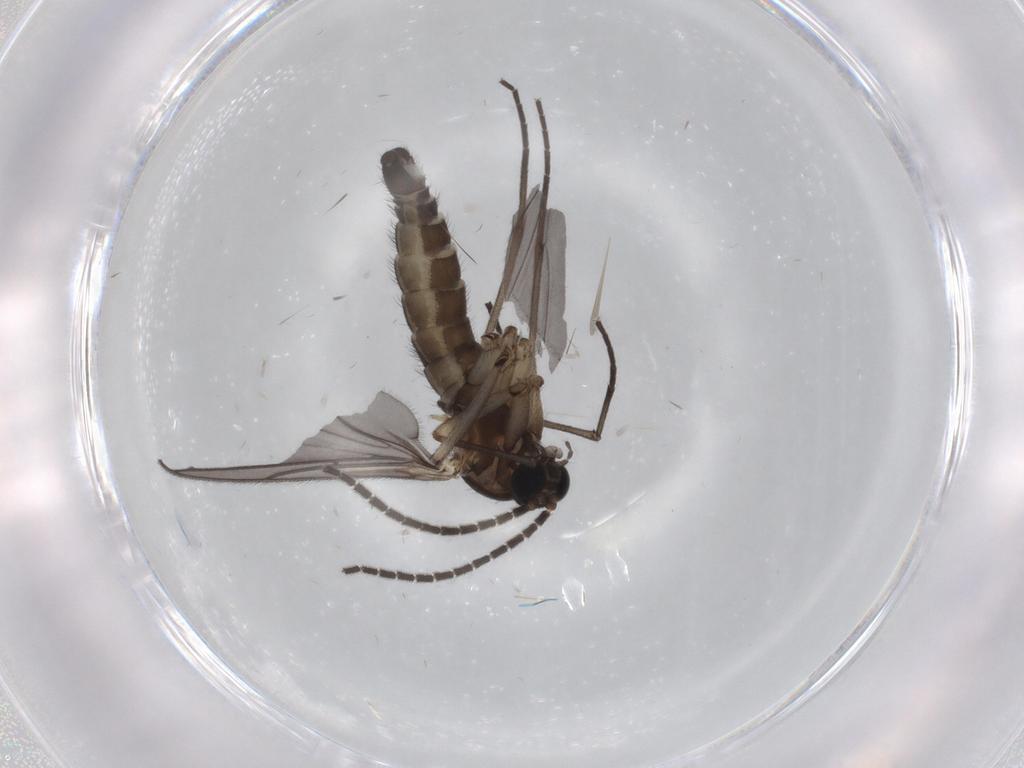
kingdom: Animalia
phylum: Arthropoda
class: Insecta
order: Diptera
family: Sciaridae
